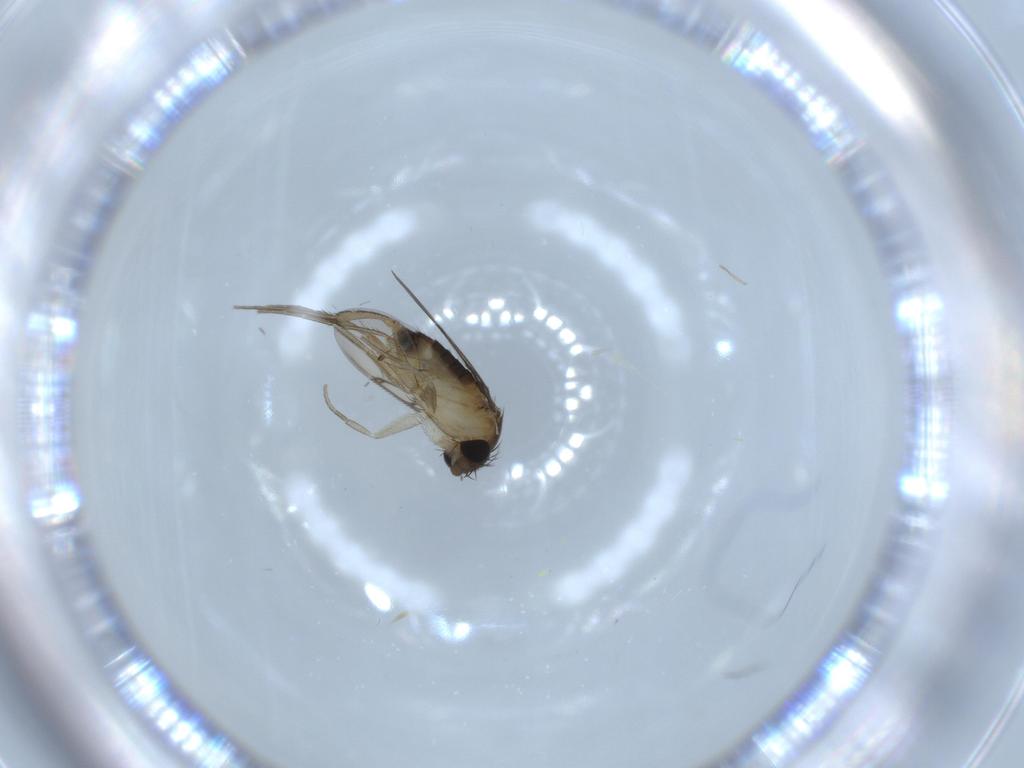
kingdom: Animalia
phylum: Arthropoda
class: Insecta
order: Diptera
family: Cecidomyiidae
